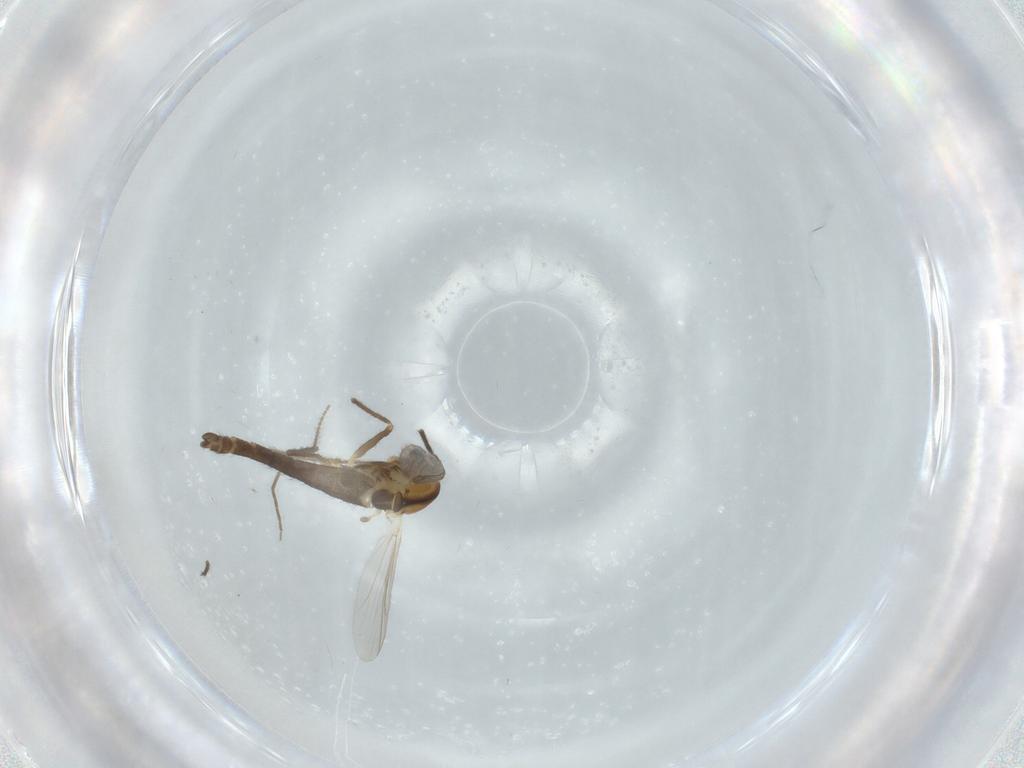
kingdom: Animalia
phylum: Arthropoda
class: Insecta
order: Diptera
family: Chironomidae
